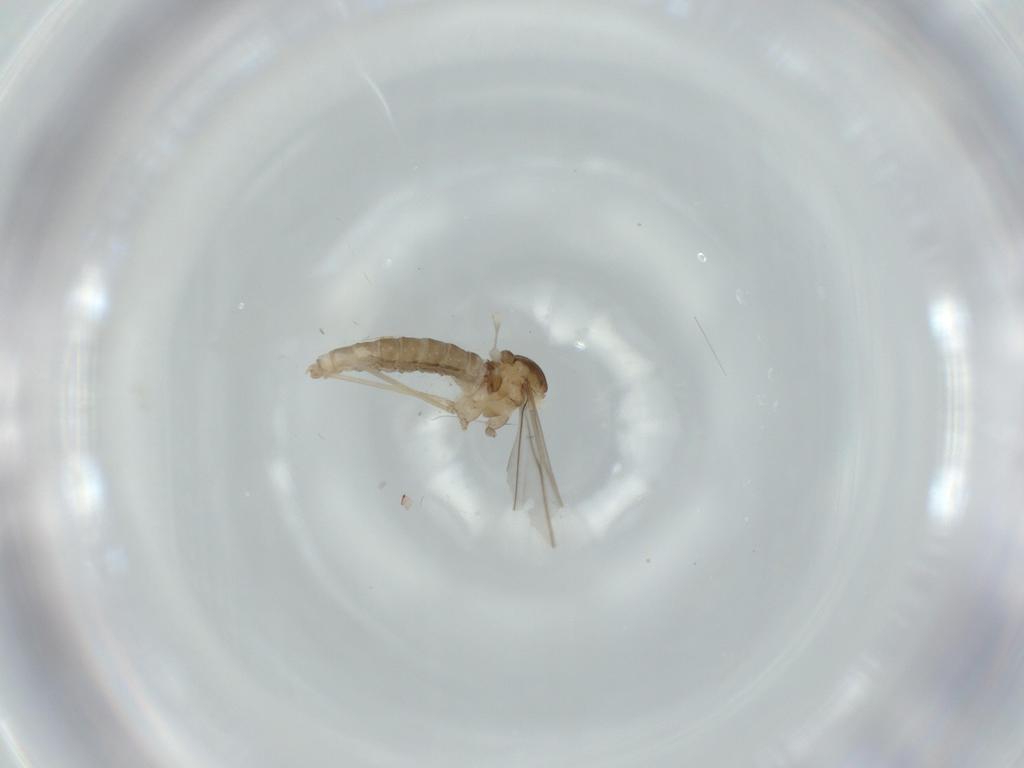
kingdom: Animalia
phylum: Arthropoda
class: Insecta
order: Diptera
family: Cecidomyiidae
